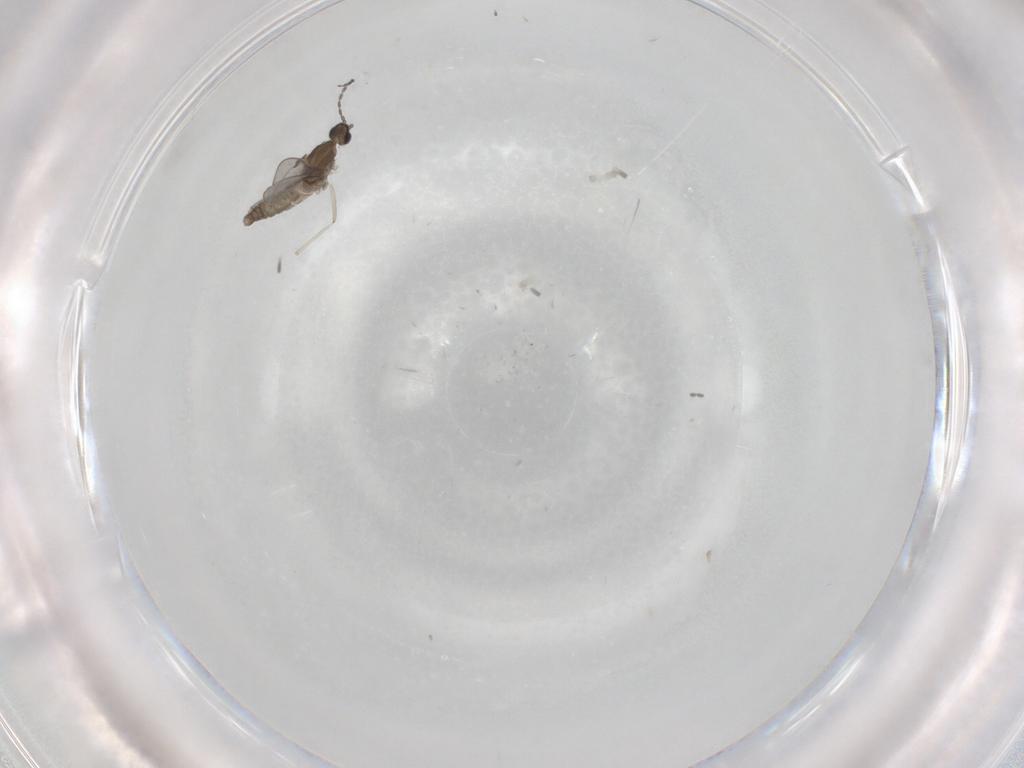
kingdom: Animalia
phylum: Arthropoda
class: Insecta
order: Diptera
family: Cecidomyiidae
